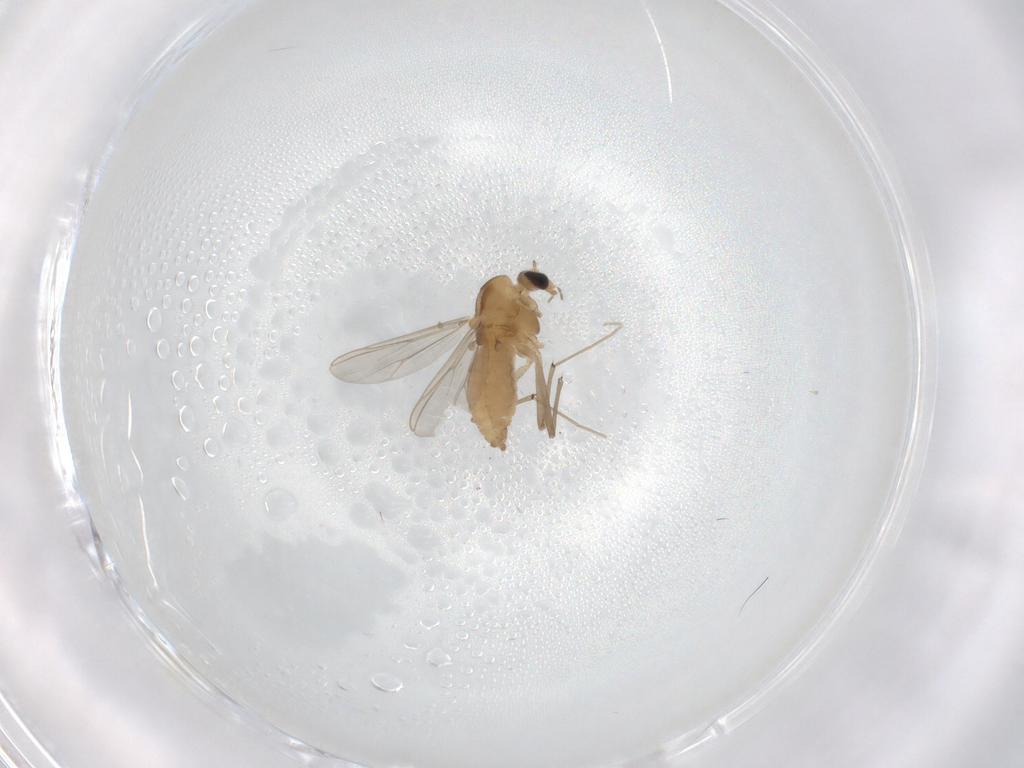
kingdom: Animalia
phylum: Arthropoda
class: Insecta
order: Diptera
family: Chironomidae
